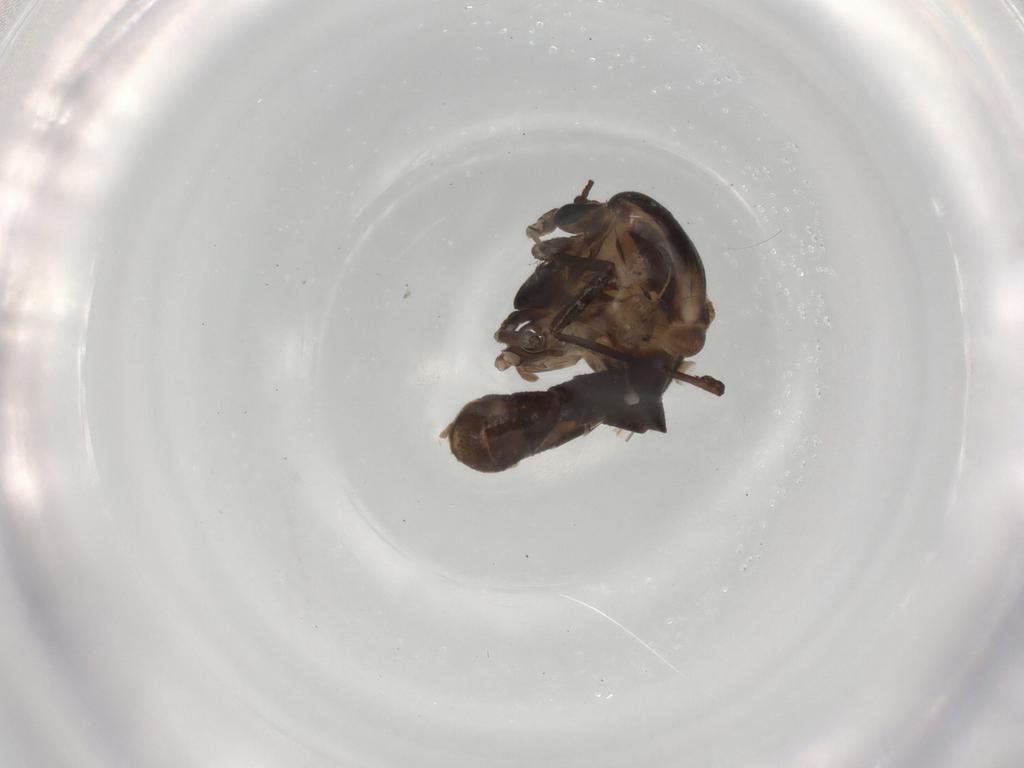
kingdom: Animalia
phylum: Arthropoda
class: Insecta
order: Diptera
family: Chironomidae
